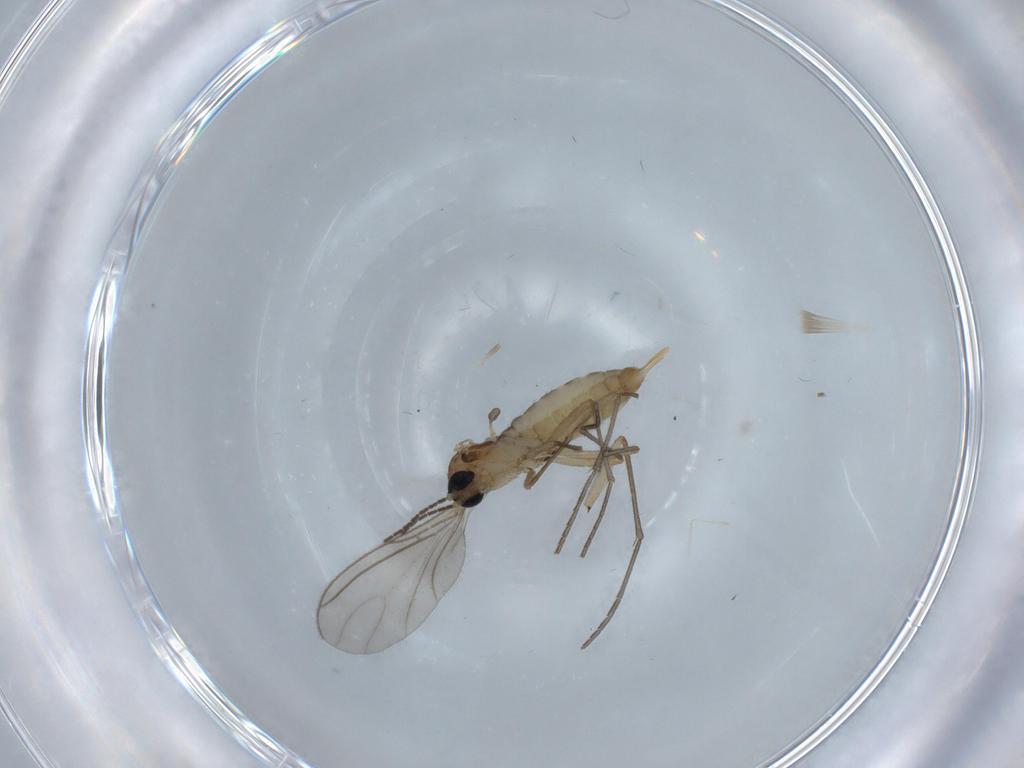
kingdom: Animalia
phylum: Arthropoda
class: Insecta
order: Diptera
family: Sciaridae
